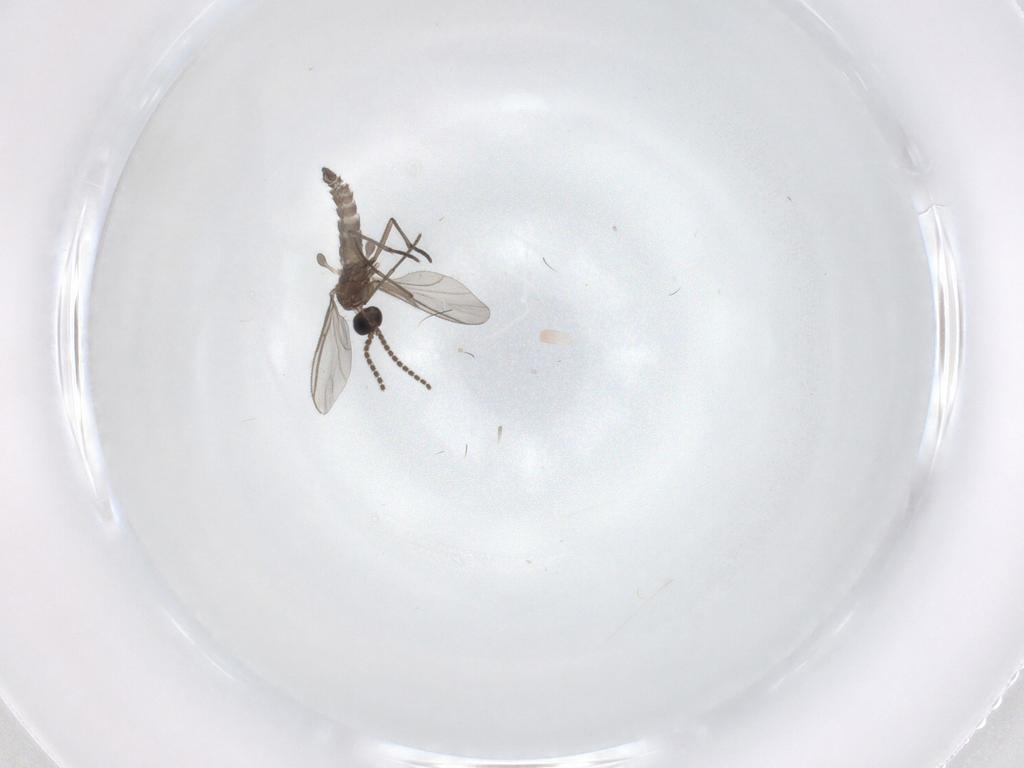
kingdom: Animalia
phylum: Arthropoda
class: Insecta
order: Diptera
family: Sciaridae
